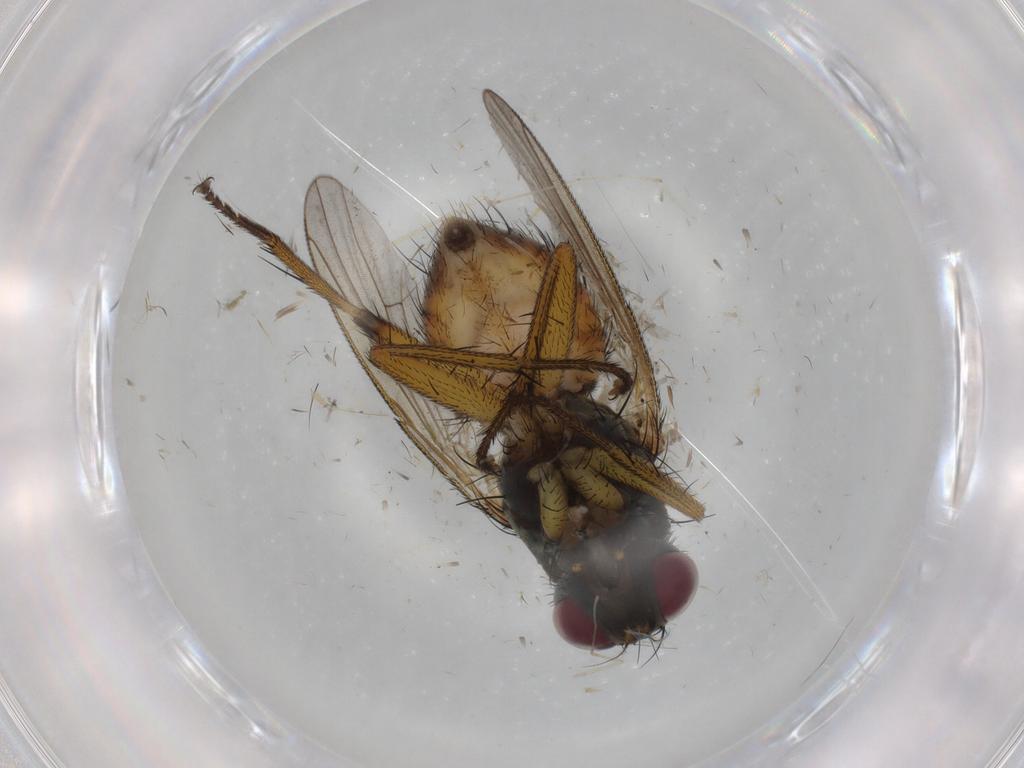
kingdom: Animalia
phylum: Arthropoda
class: Insecta
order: Diptera
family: Muscidae
